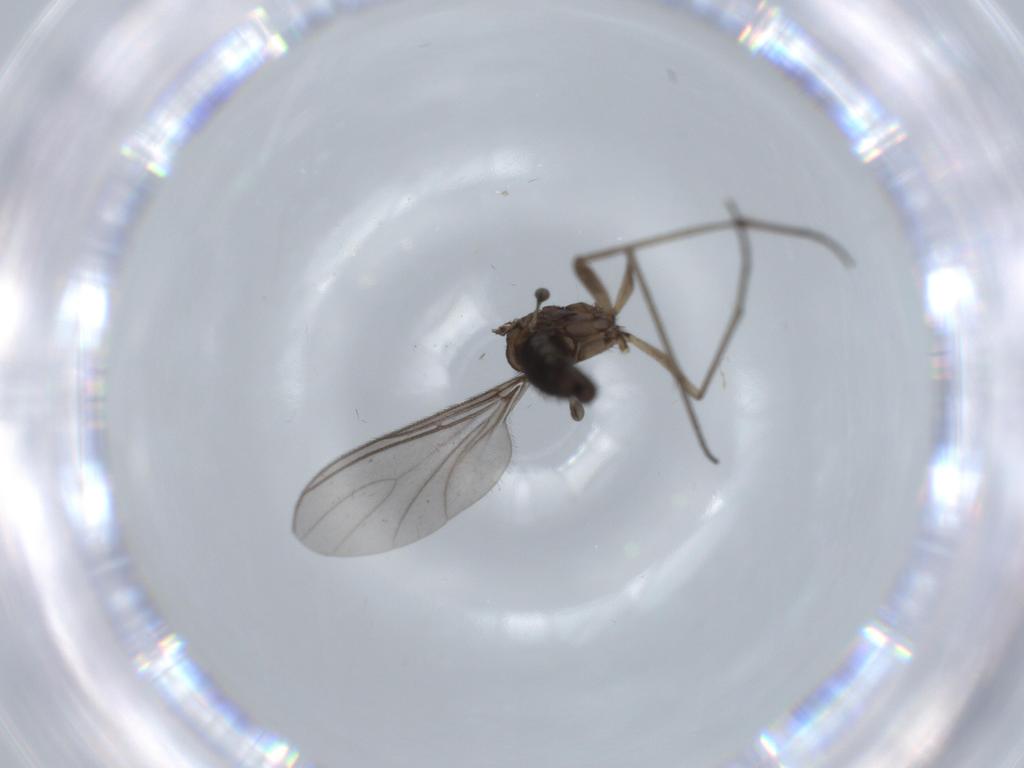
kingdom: Animalia
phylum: Arthropoda
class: Insecta
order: Diptera
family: Sciaridae
